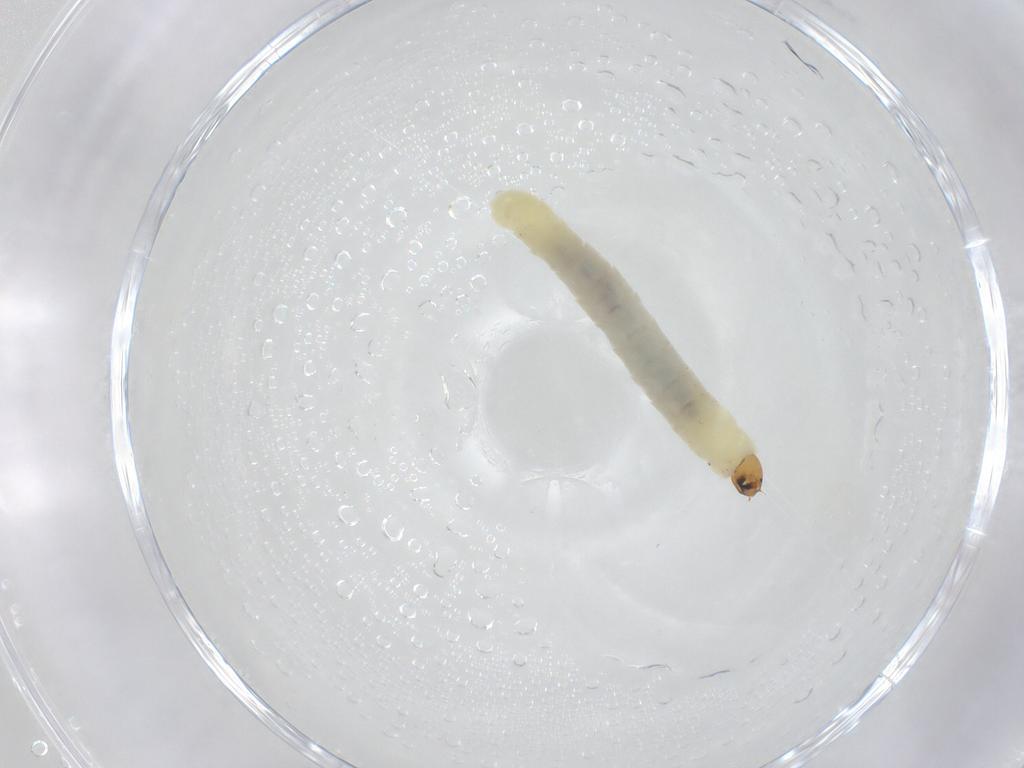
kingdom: Animalia
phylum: Arthropoda
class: Insecta
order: Diptera
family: Chironomidae
